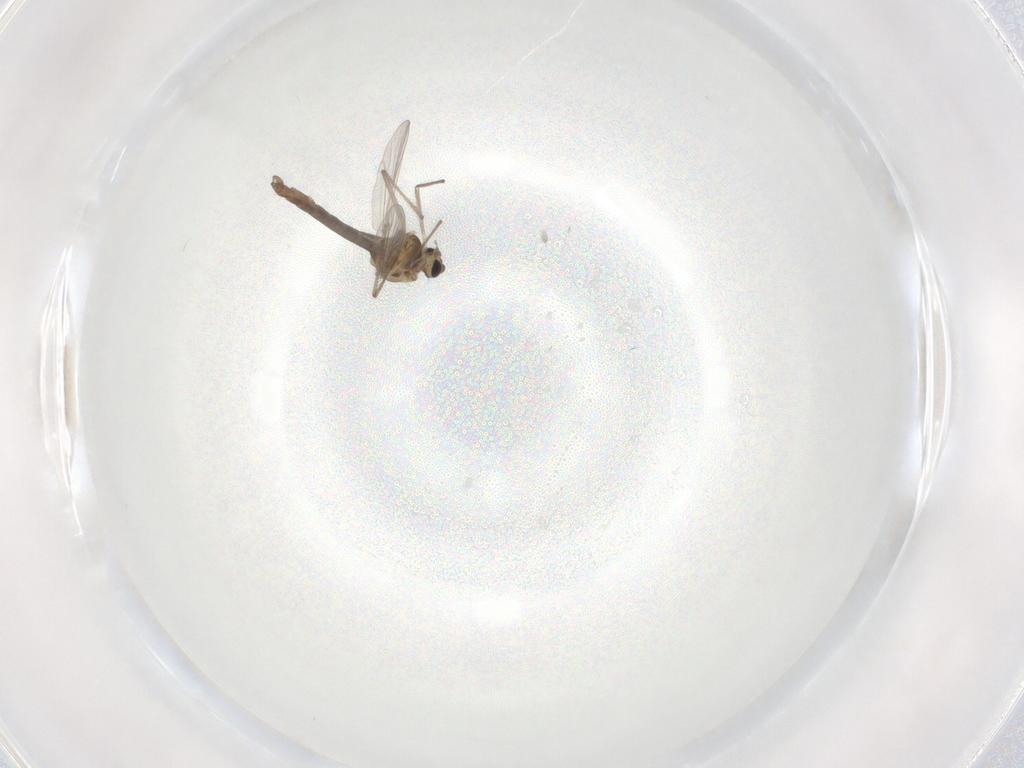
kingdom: Animalia
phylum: Arthropoda
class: Insecta
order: Diptera
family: Chironomidae
